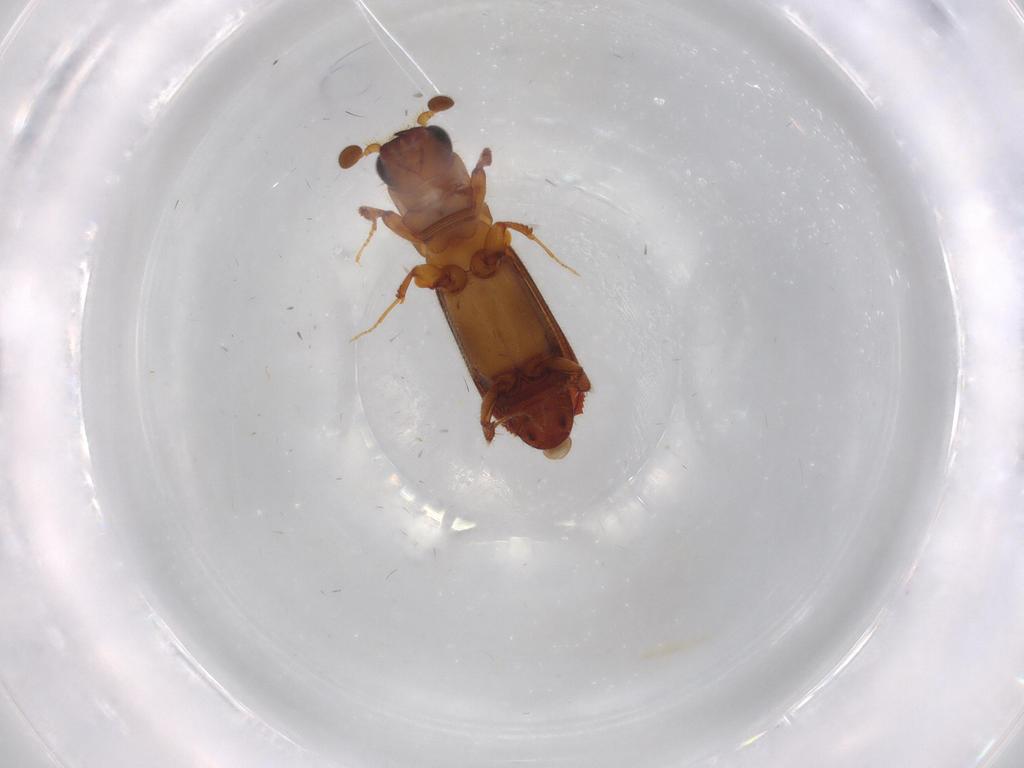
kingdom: Animalia
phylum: Arthropoda
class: Insecta
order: Coleoptera
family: Curculionidae
